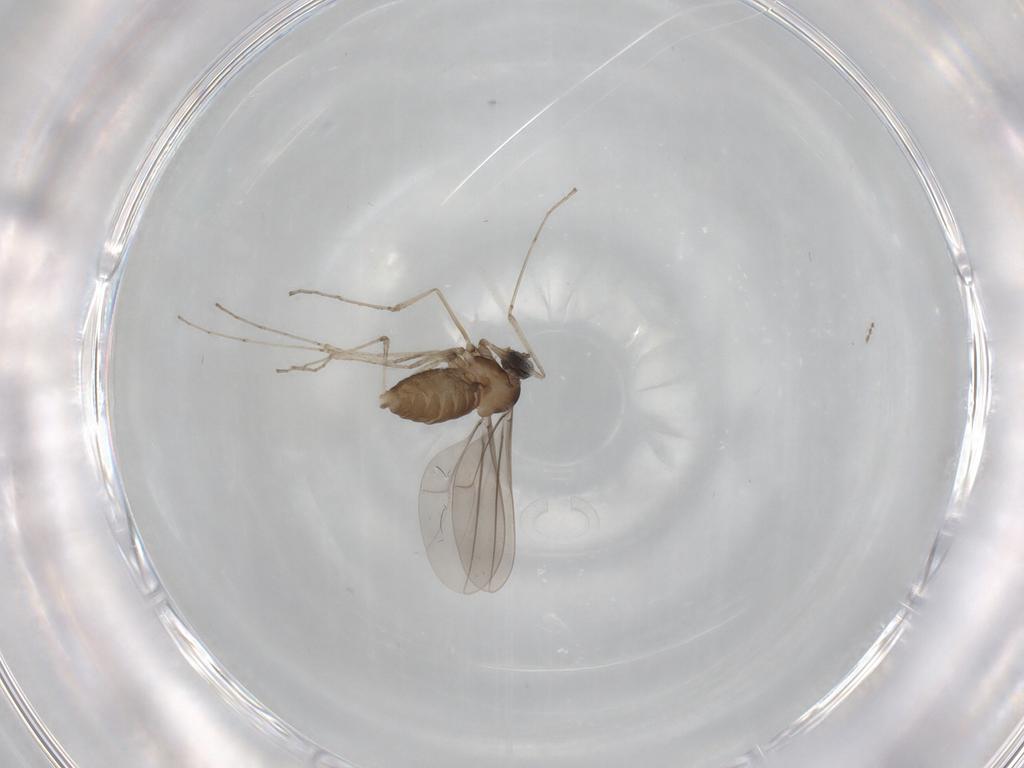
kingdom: Animalia
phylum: Arthropoda
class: Insecta
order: Diptera
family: Cecidomyiidae
